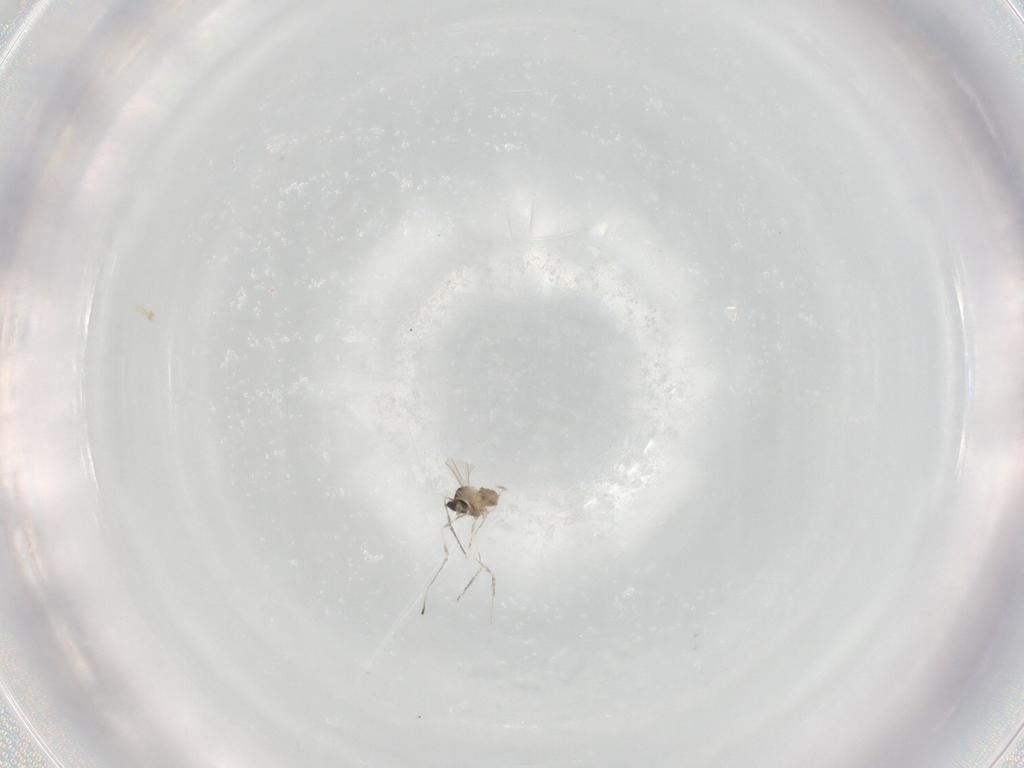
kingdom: Animalia
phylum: Arthropoda
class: Insecta
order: Diptera
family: Cecidomyiidae
